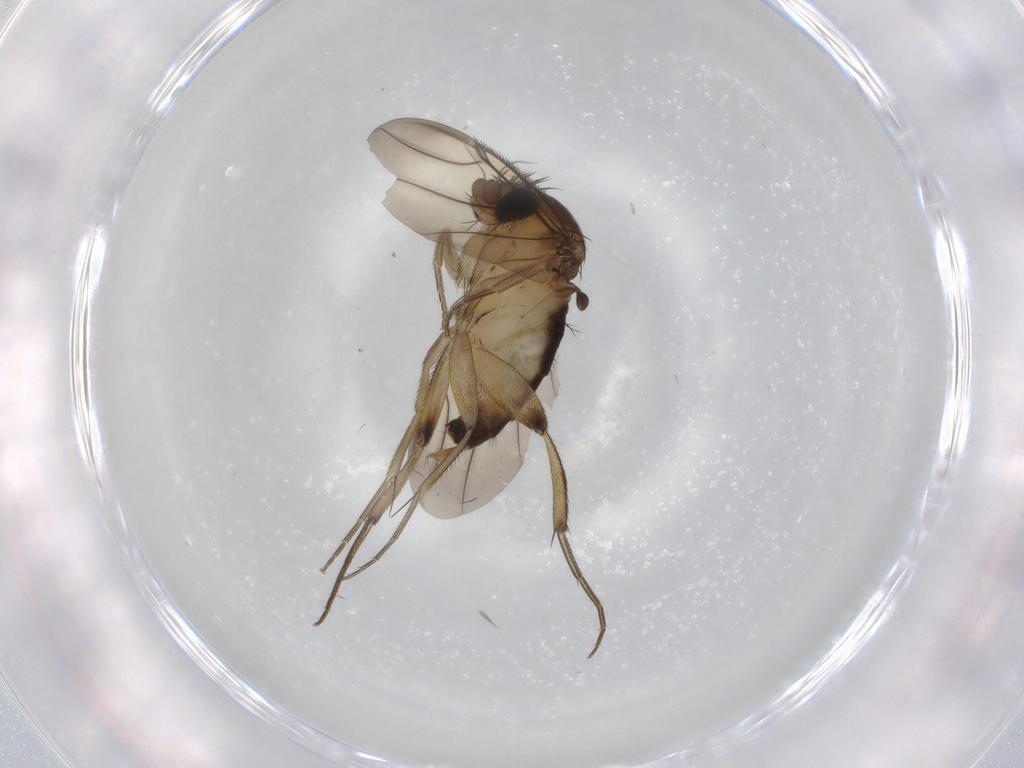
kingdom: Animalia
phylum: Arthropoda
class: Insecta
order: Diptera
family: Phoridae
